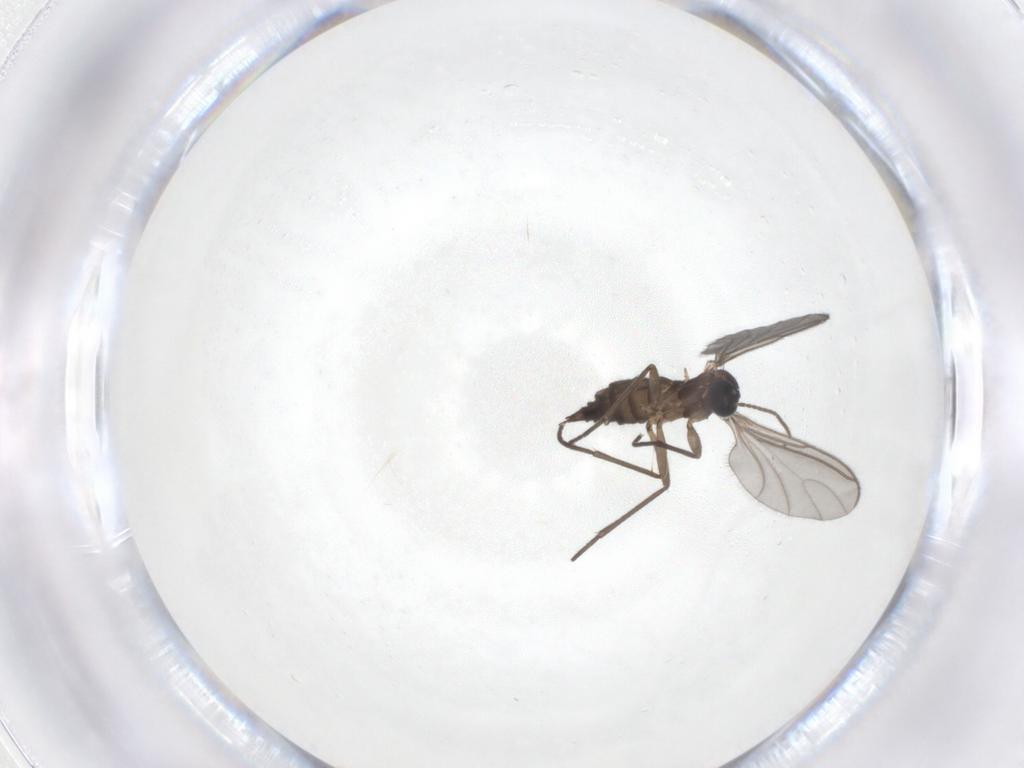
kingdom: Animalia
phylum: Arthropoda
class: Insecta
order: Diptera
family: Sciaridae
